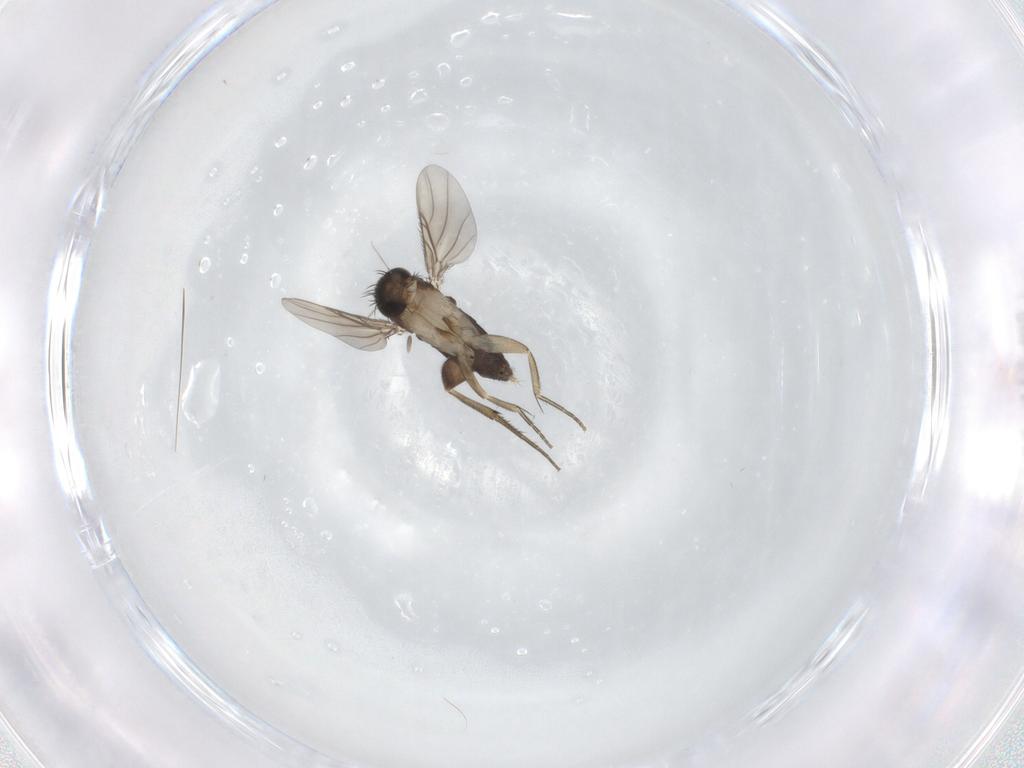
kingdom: Animalia
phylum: Arthropoda
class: Insecta
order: Diptera
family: Phoridae
